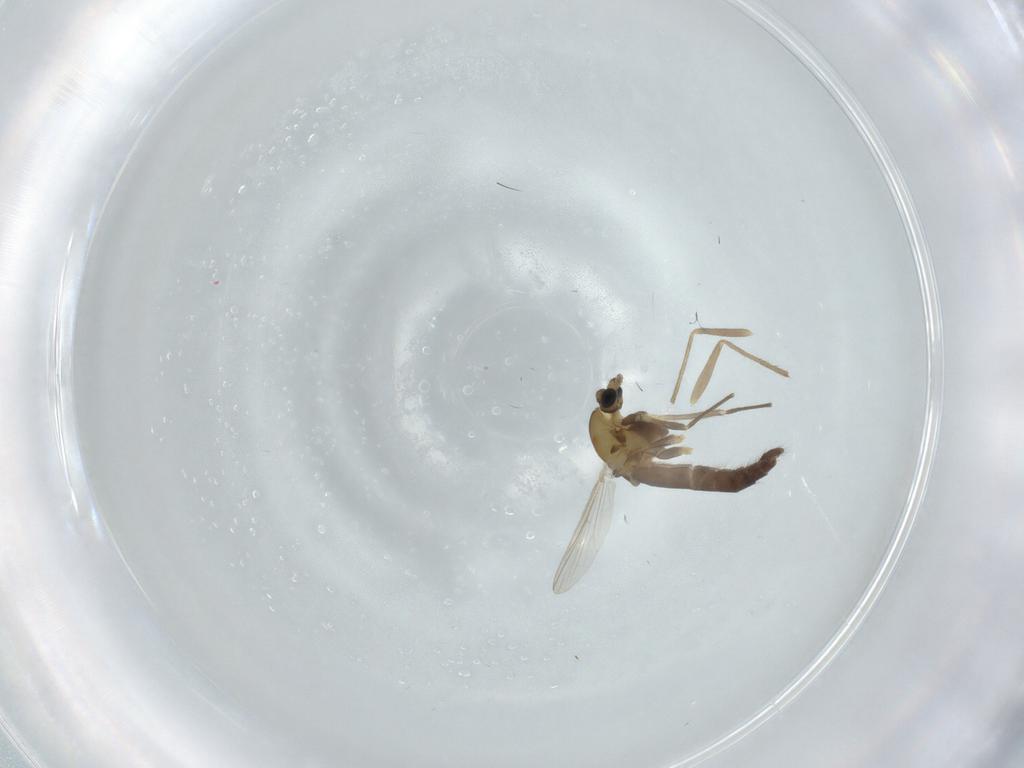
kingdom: Animalia
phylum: Arthropoda
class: Insecta
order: Diptera
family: Chironomidae
